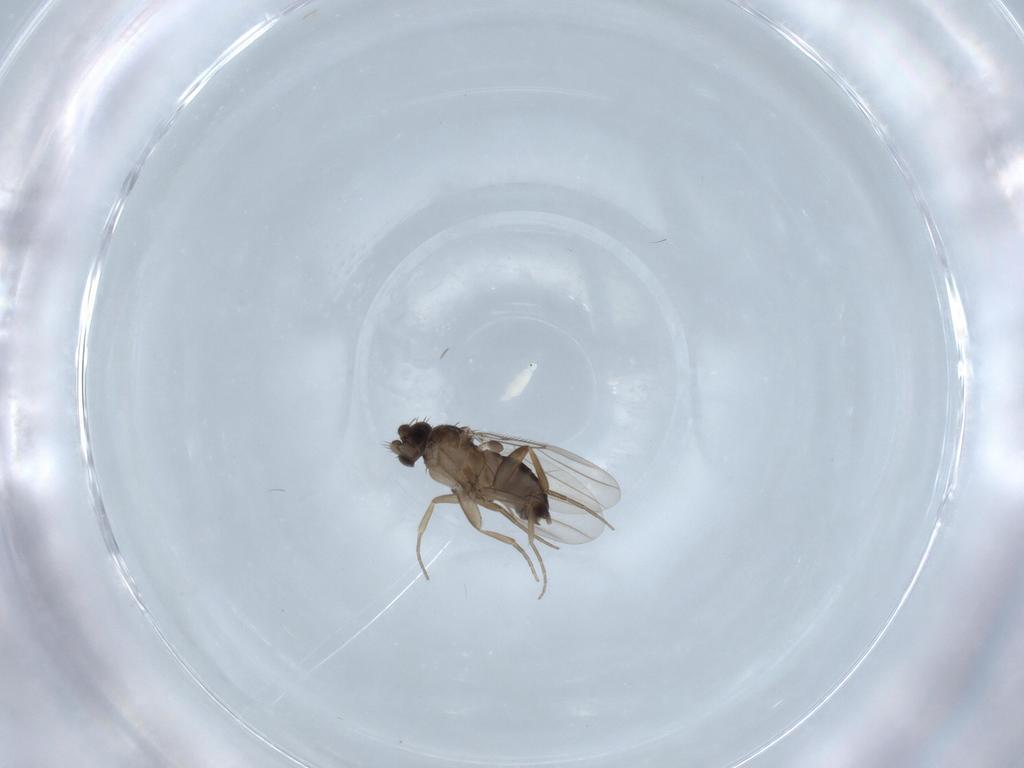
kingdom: Animalia
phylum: Arthropoda
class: Insecta
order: Diptera
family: Phoridae
